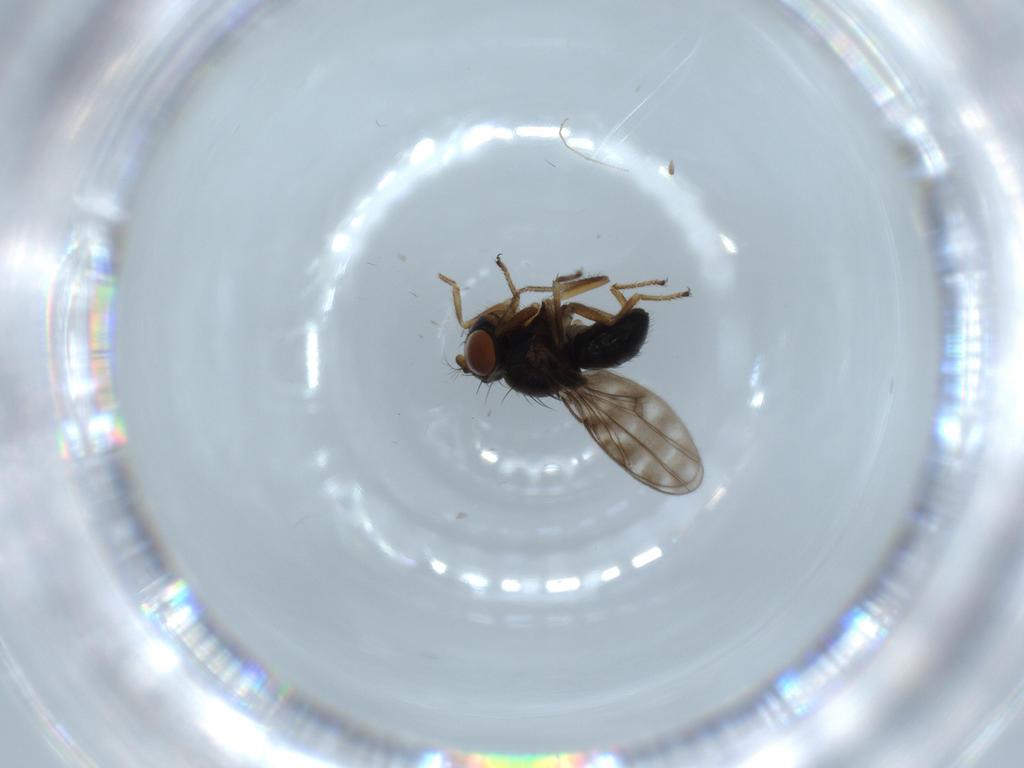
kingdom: Animalia
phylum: Arthropoda
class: Insecta
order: Diptera
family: Ephydridae
